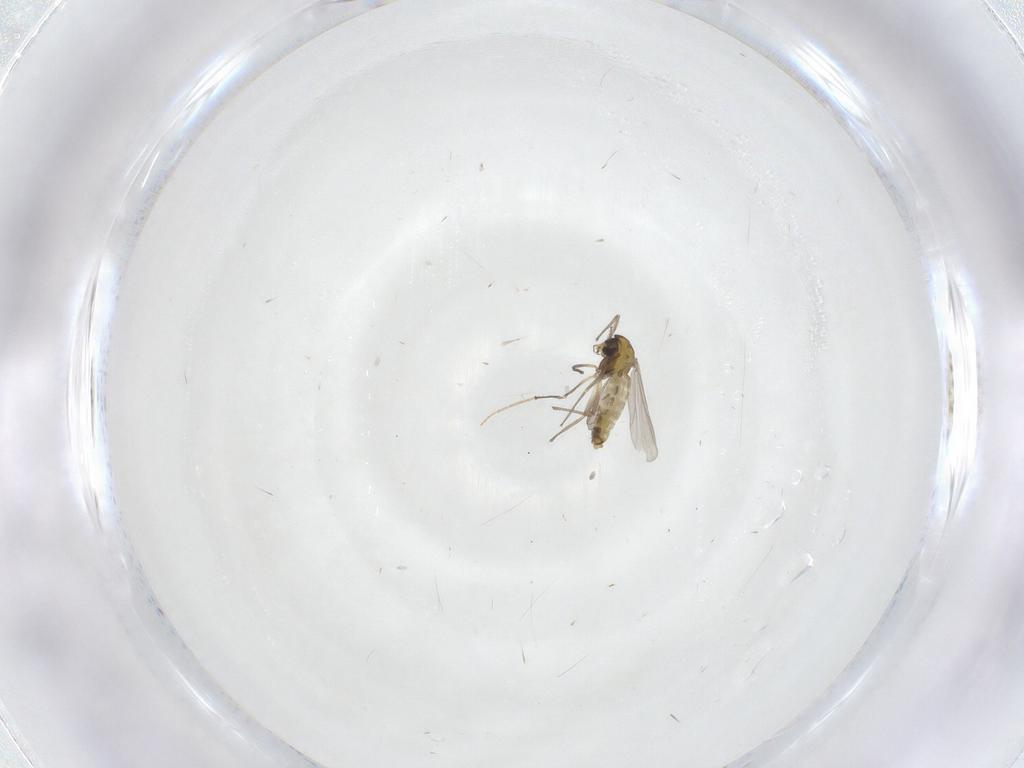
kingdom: Animalia
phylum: Arthropoda
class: Insecta
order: Diptera
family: Chironomidae
